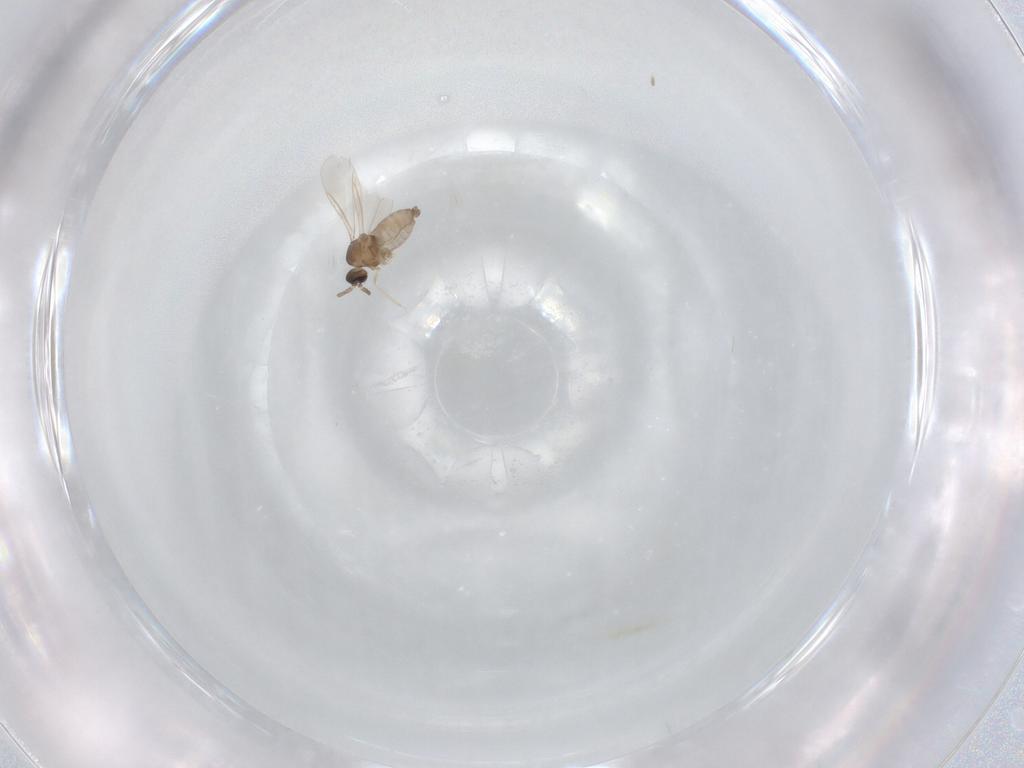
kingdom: Animalia
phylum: Arthropoda
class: Insecta
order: Diptera
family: Cecidomyiidae
